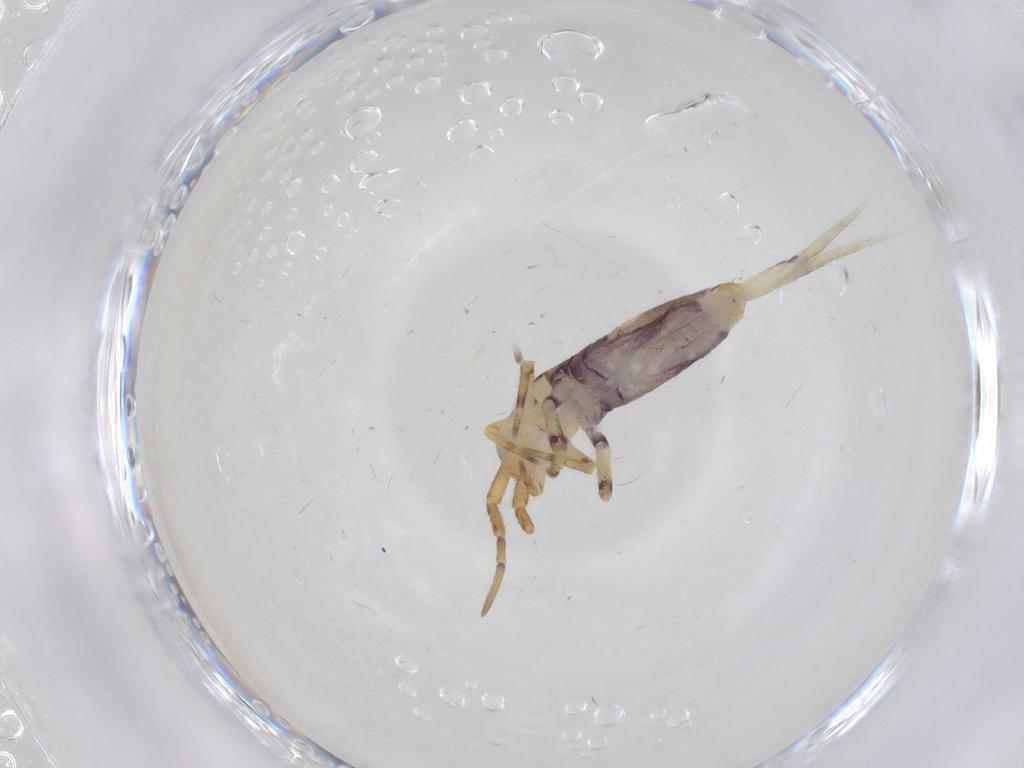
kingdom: Animalia
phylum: Arthropoda
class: Collembola
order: Entomobryomorpha
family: Entomobryidae
